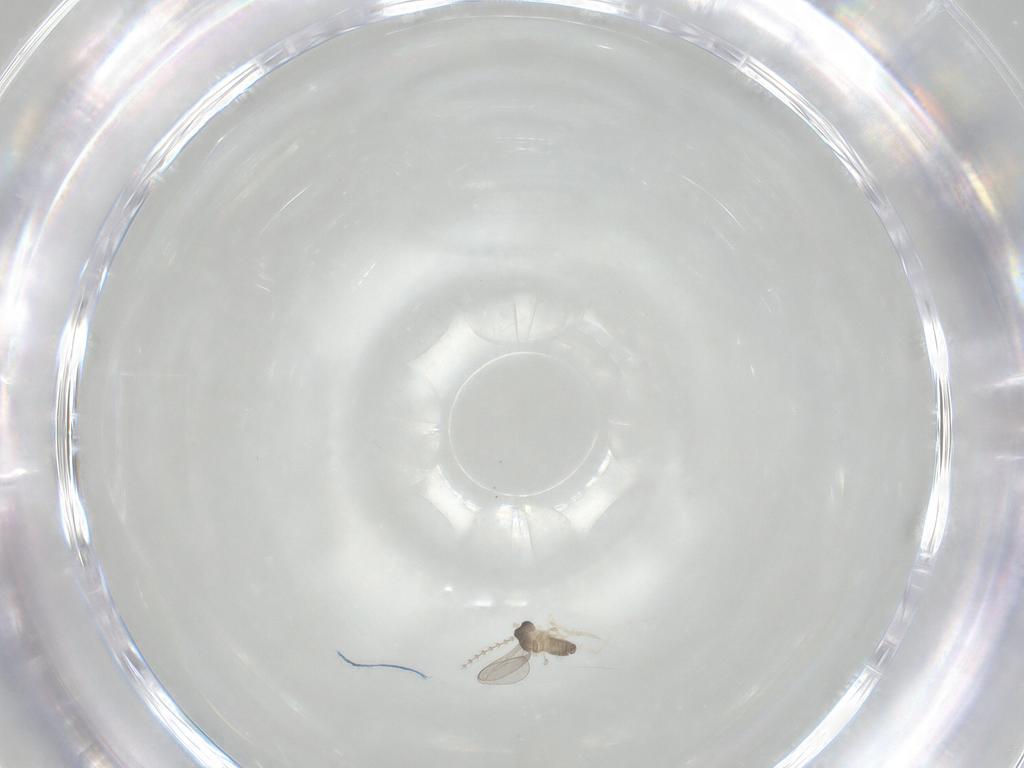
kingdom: Animalia
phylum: Arthropoda
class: Insecta
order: Diptera
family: Cecidomyiidae
